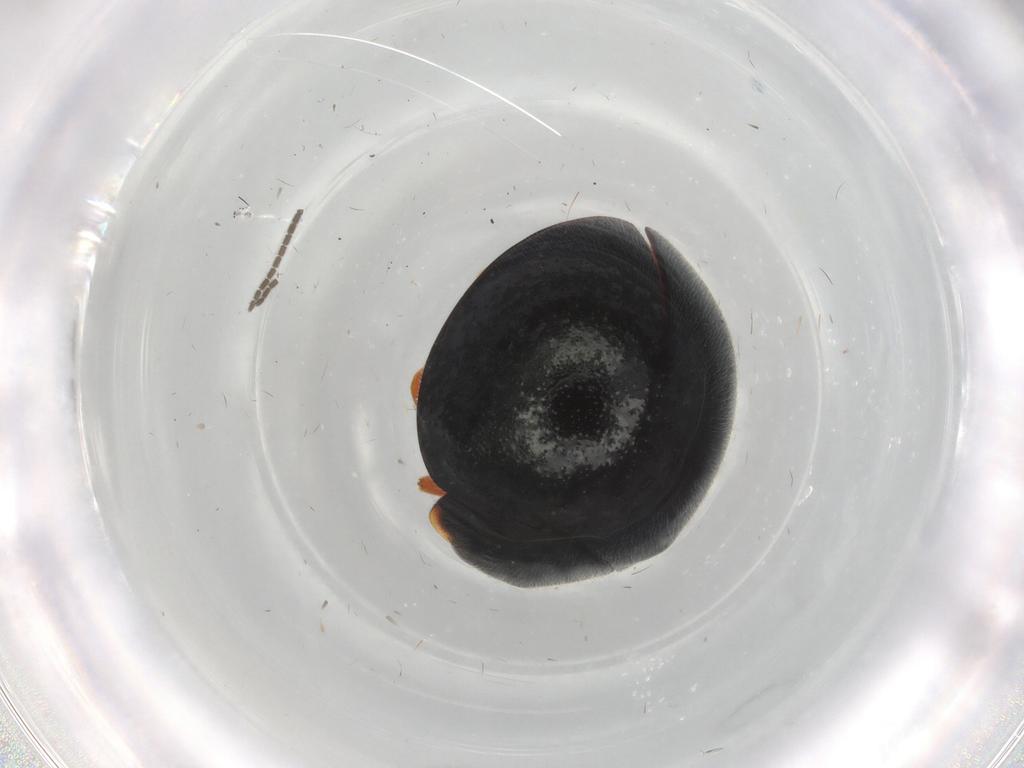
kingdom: Animalia
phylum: Arthropoda
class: Insecta
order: Coleoptera
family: Coccinellidae
